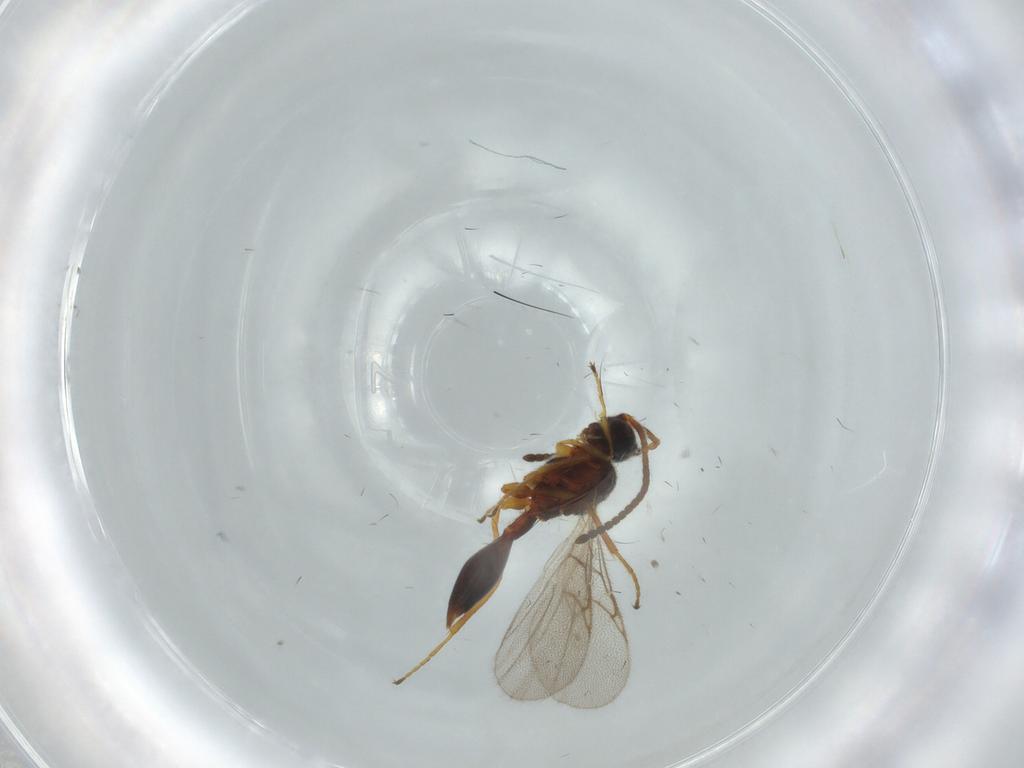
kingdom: Animalia
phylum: Arthropoda
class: Insecta
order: Hymenoptera
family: Diapriidae
